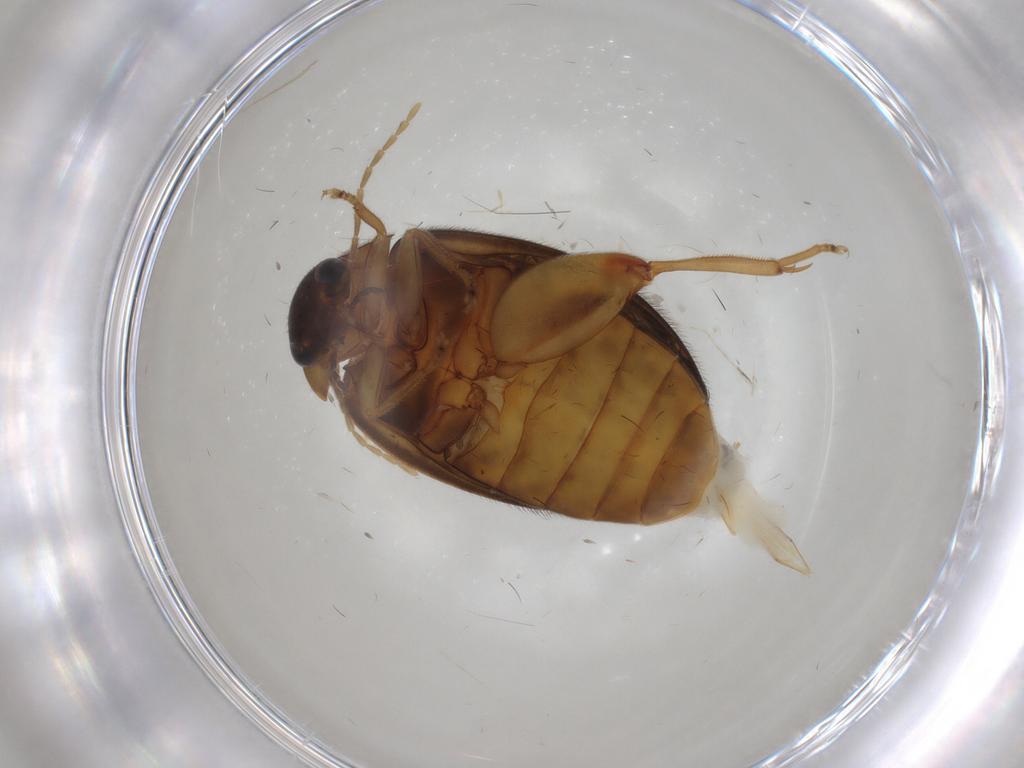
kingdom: Animalia
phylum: Arthropoda
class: Insecta
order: Coleoptera
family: Scirtidae
